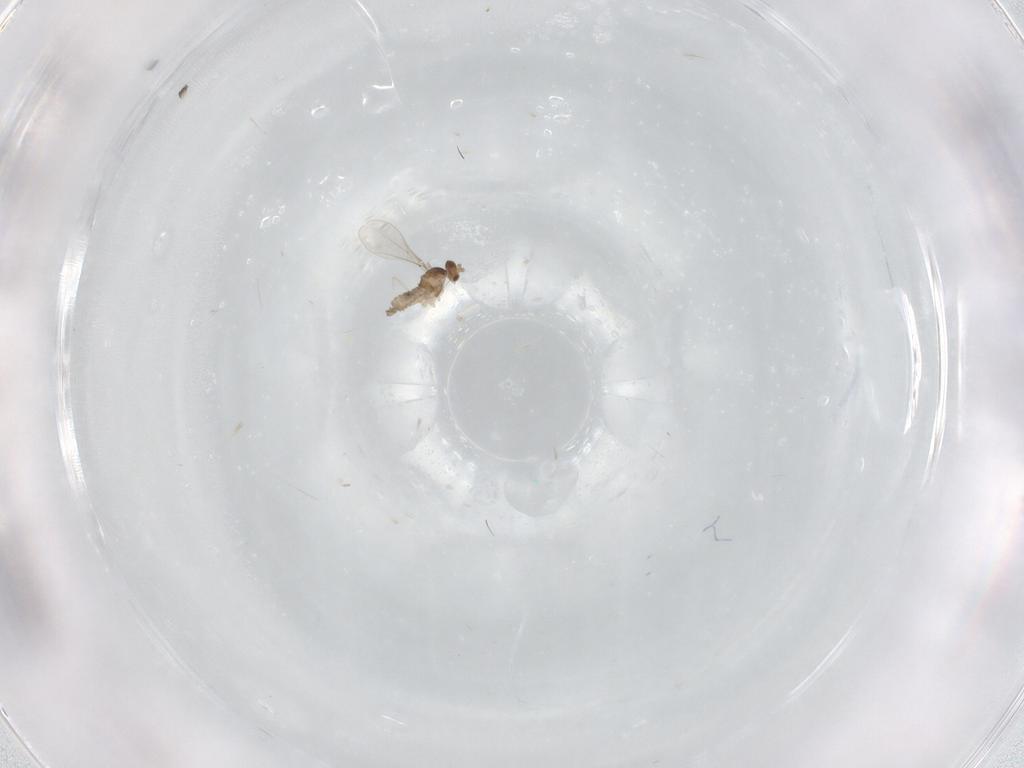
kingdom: Animalia
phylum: Arthropoda
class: Insecta
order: Diptera
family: Cecidomyiidae
